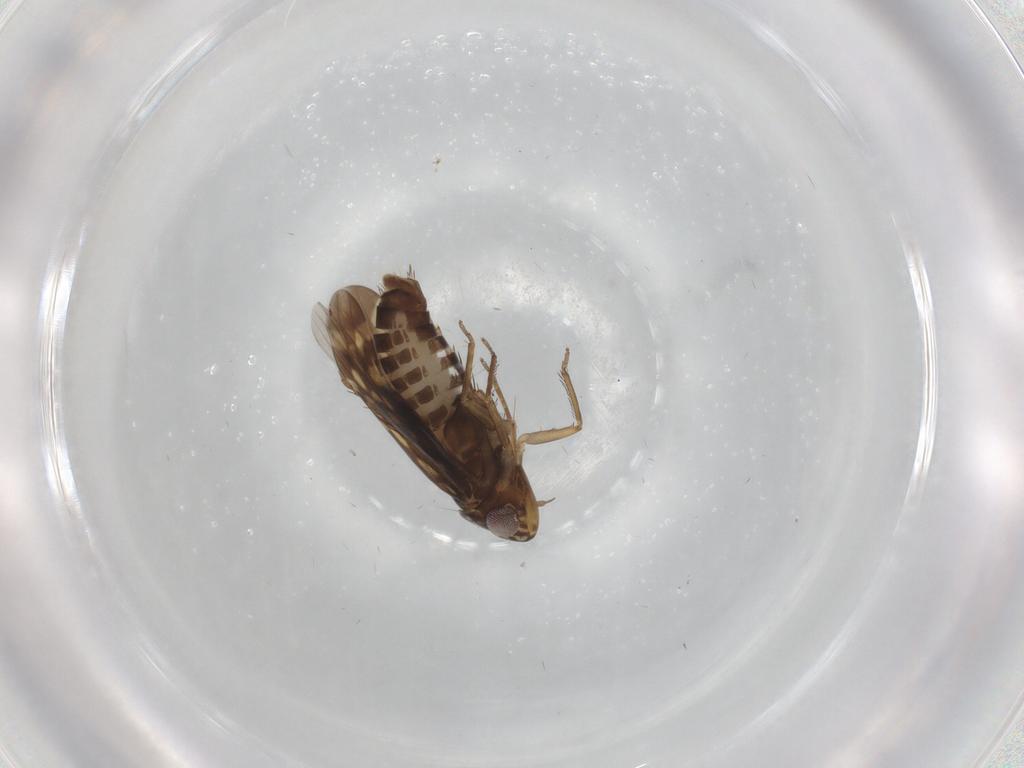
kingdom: Animalia
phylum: Arthropoda
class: Insecta
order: Hemiptera
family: Cicadellidae
